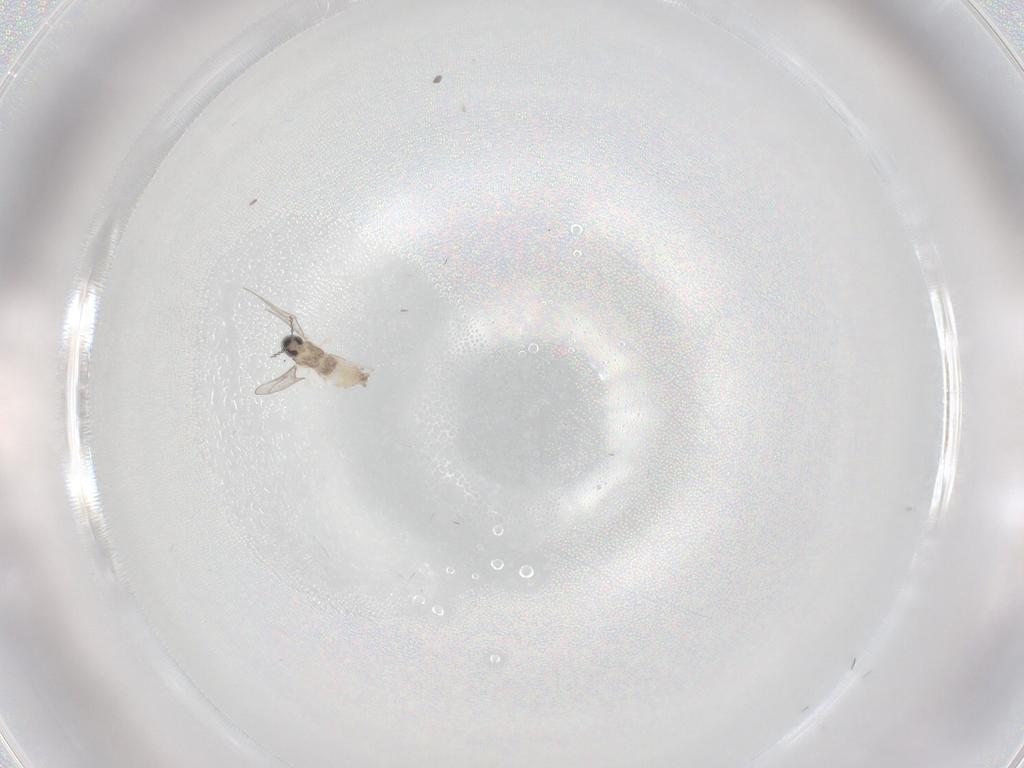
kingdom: Animalia
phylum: Arthropoda
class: Insecta
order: Diptera
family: Cecidomyiidae
